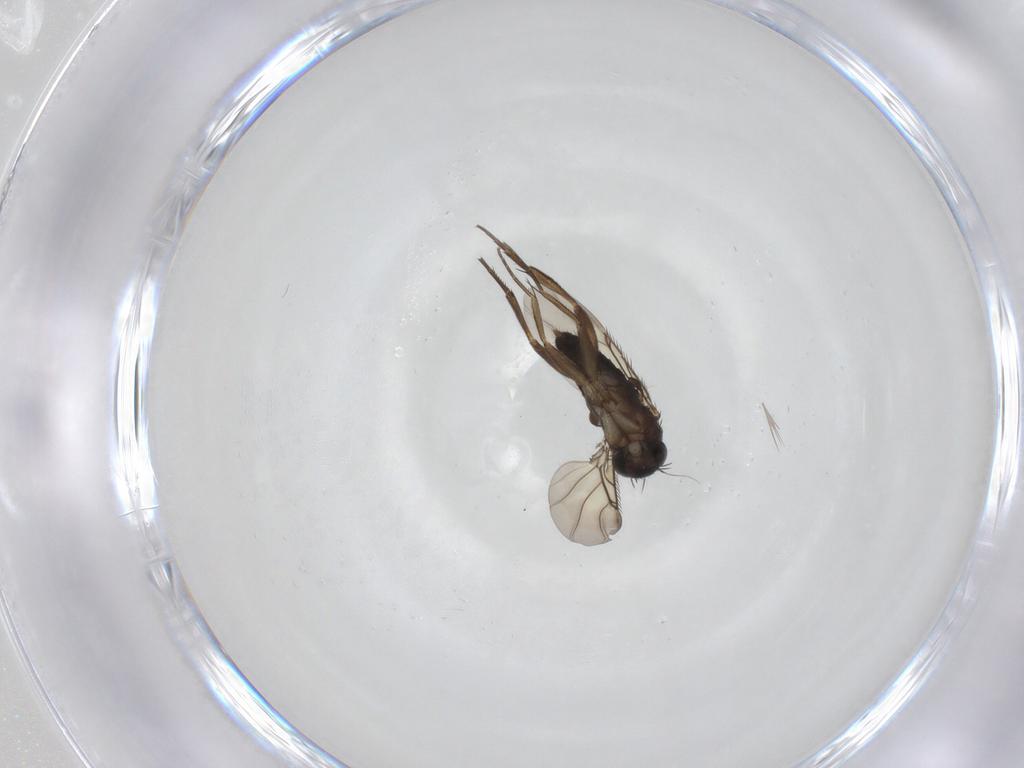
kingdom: Animalia
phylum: Arthropoda
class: Insecta
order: Diptera
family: Phoridae
